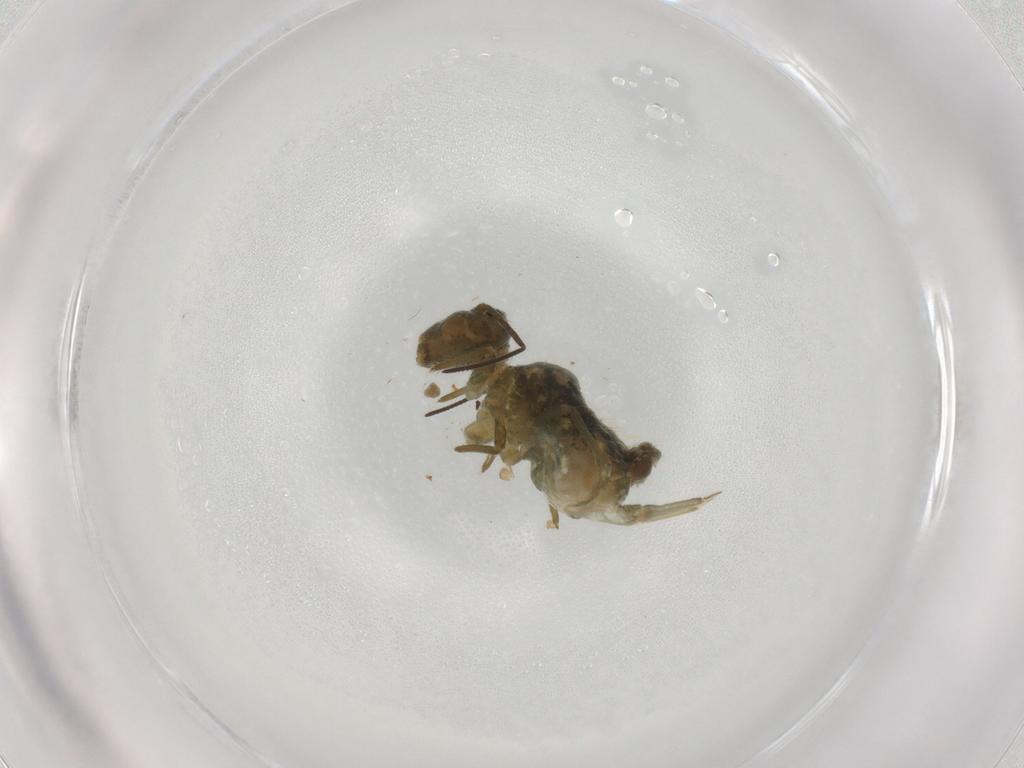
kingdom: Animalia
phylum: Arthropoda
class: Collembola
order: Symphypleona
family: Sminthuridae
